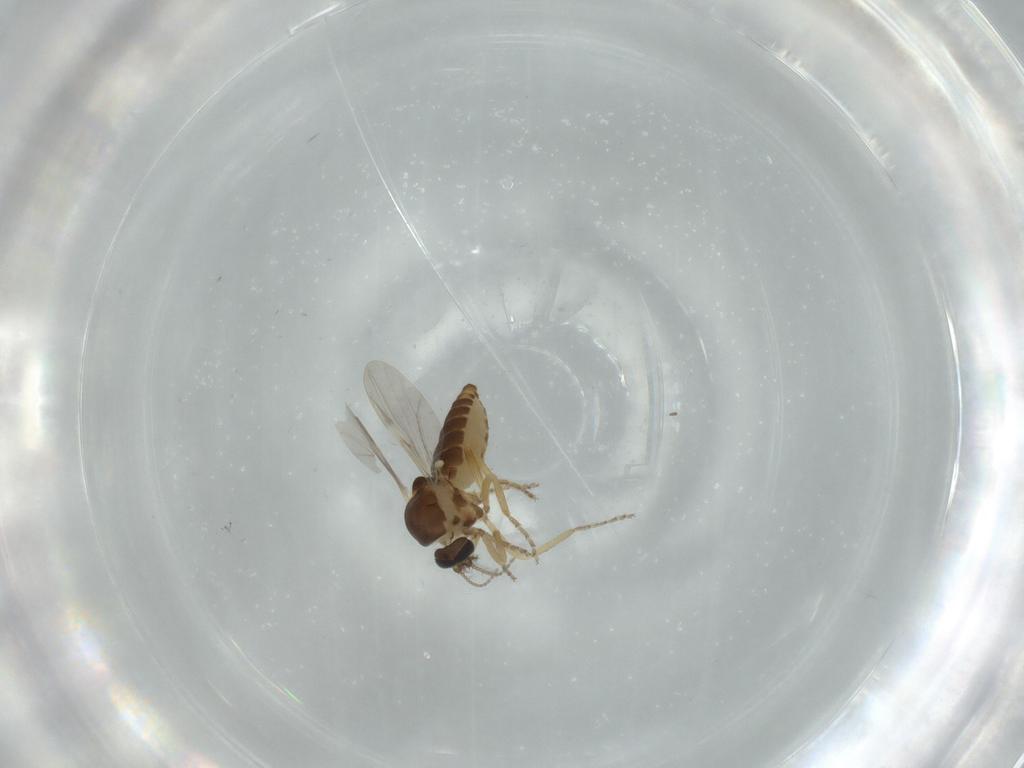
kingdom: Animalia
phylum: Arthropoda
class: Insecta
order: Diptera
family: Ceratopogonidae
